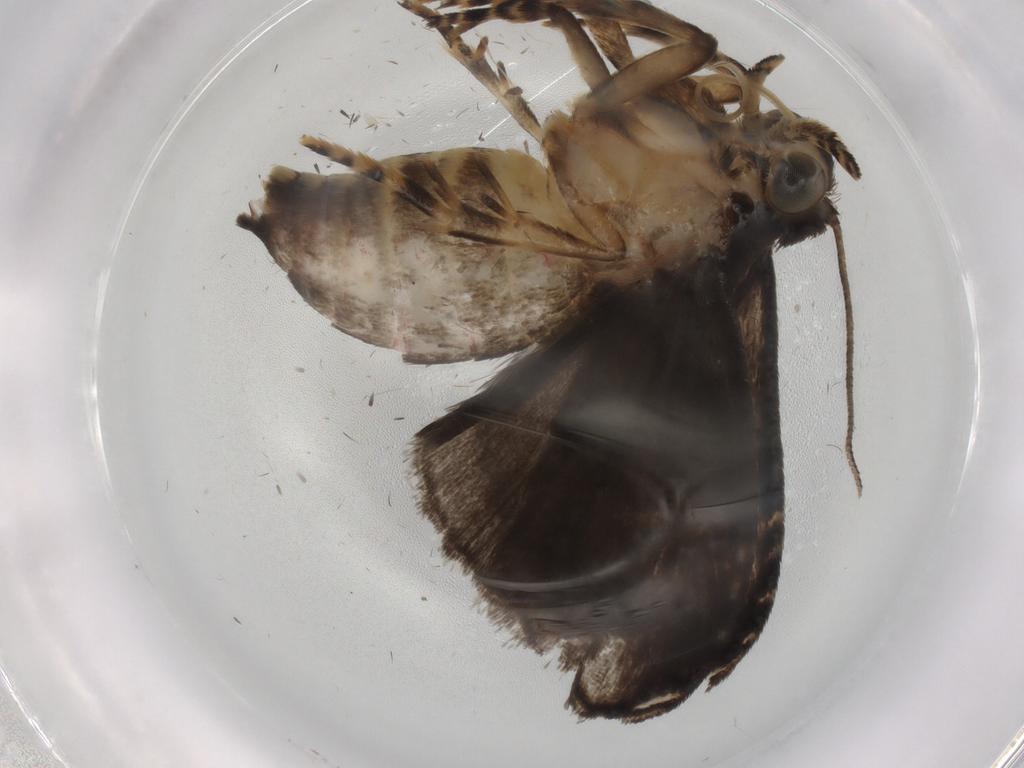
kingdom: Animalia
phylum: Arthropoda
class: Insecta
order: Lepidoptera
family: Immidae
